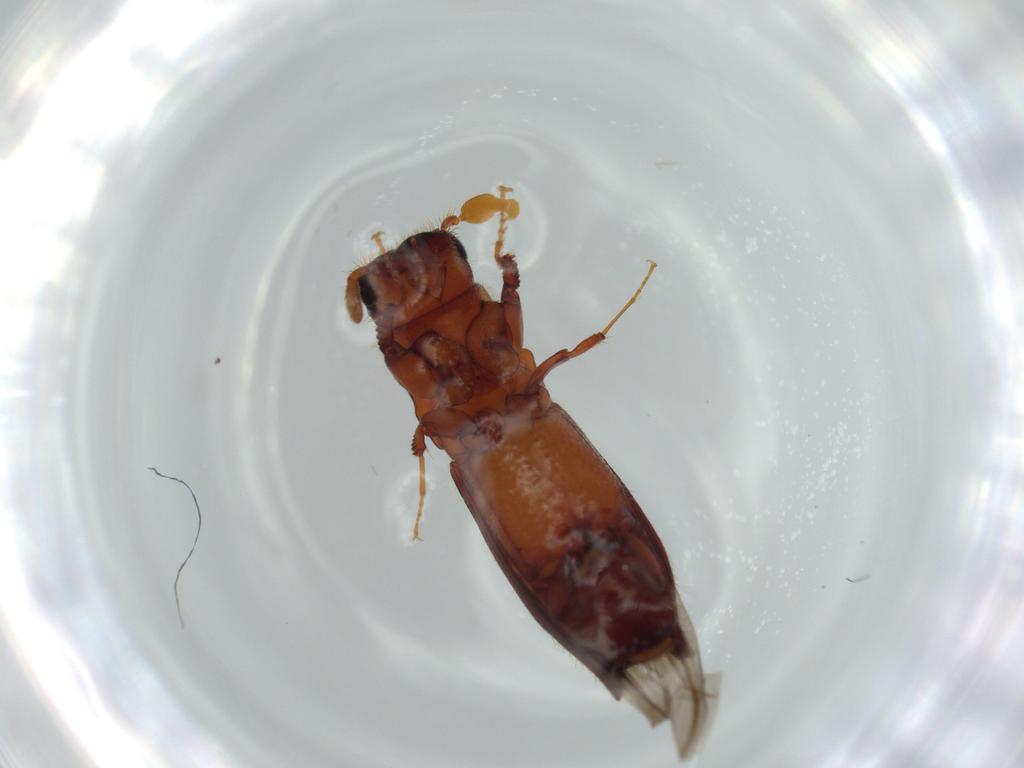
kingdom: Animalia
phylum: Arthropoda
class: Insecta
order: Coleoptera
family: Curculionidae
